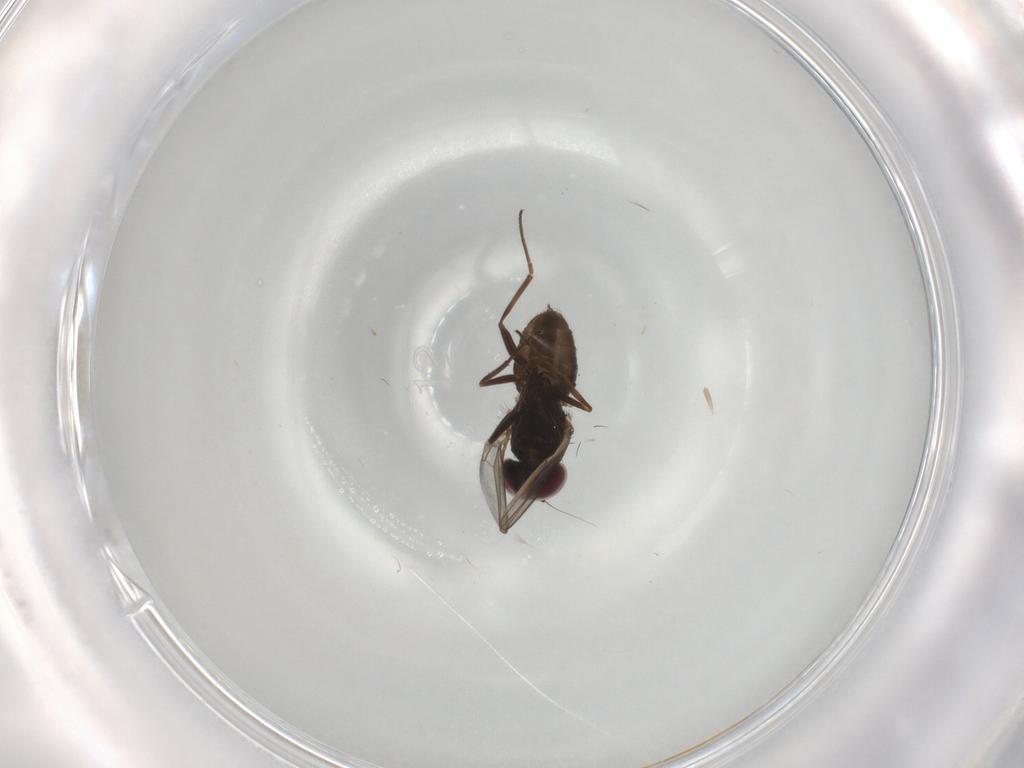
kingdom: Animalia
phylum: Arthropoda
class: Insecta
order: Diptera
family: Dolichopodidae
